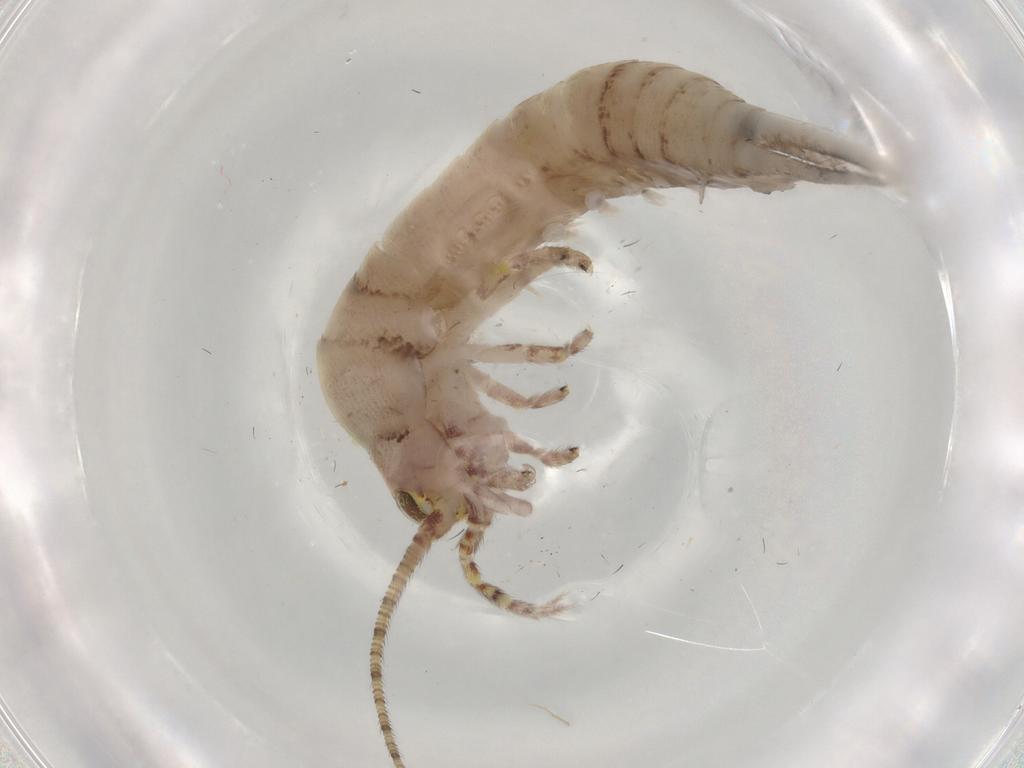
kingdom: Animalia
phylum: Arthropoda
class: Insecta
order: Archaeognatha
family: Machilidae
